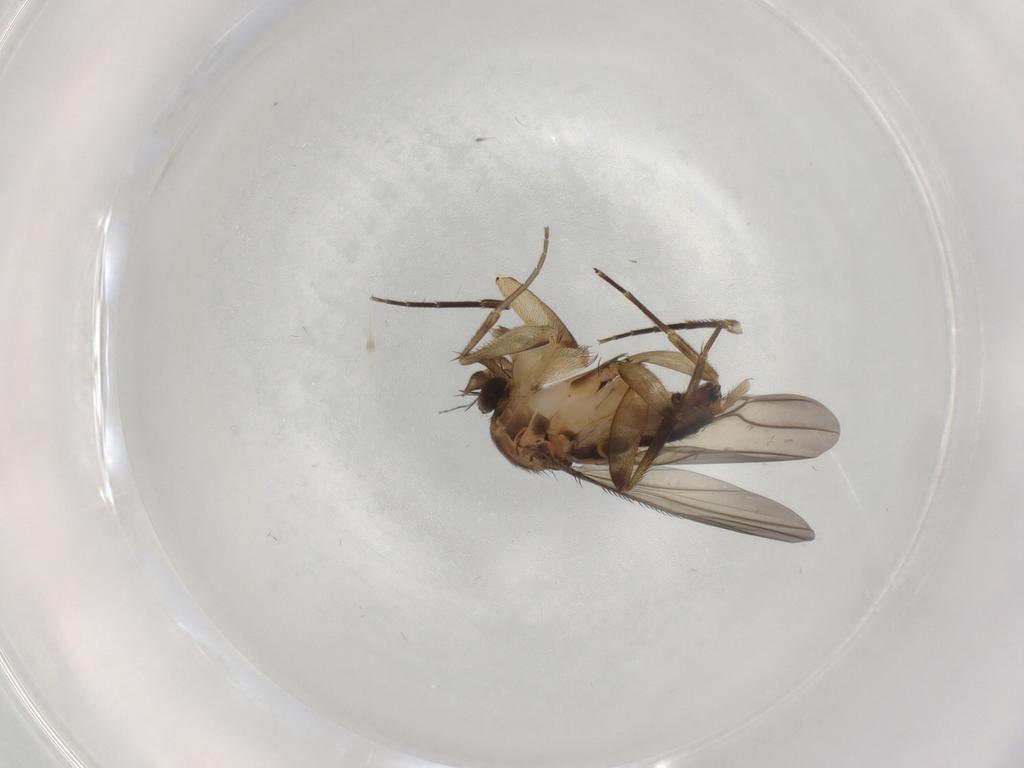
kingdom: Animalia
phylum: Arthropoda
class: Insecta
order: Diptera
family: Phoridae
